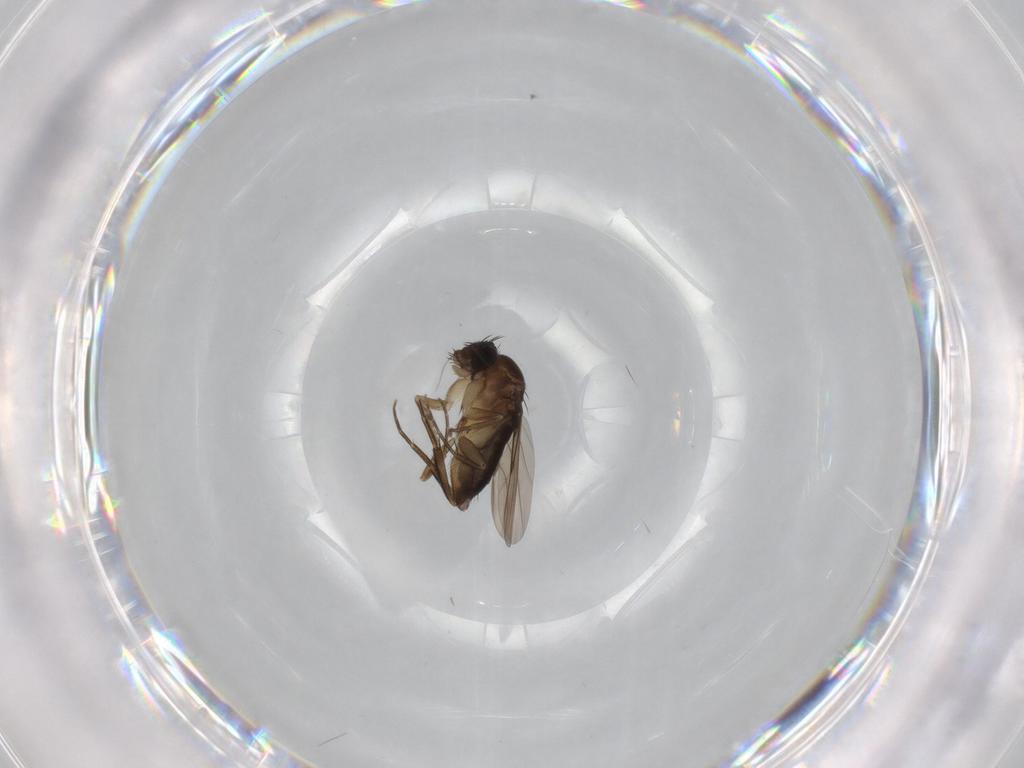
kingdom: Animalia
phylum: Arthropoda
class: Insecta
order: Diptera
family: Phoridae
